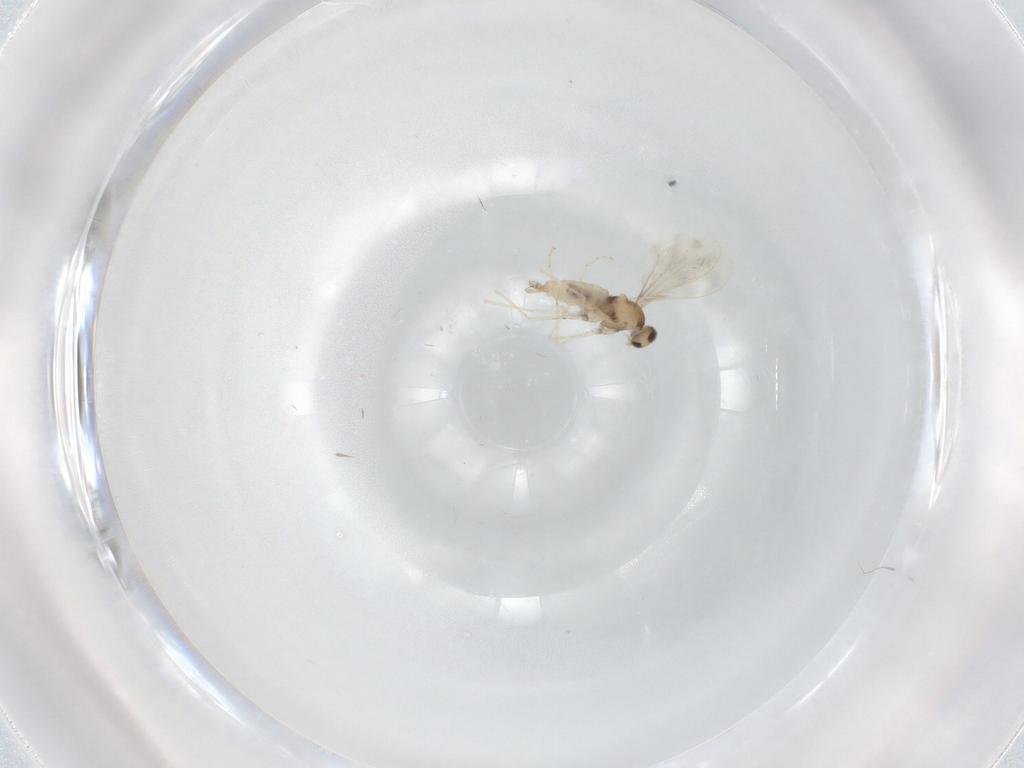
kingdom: Animalia
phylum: Arthropoda
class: Insecta
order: Diptera
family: Cecidomyiidae
